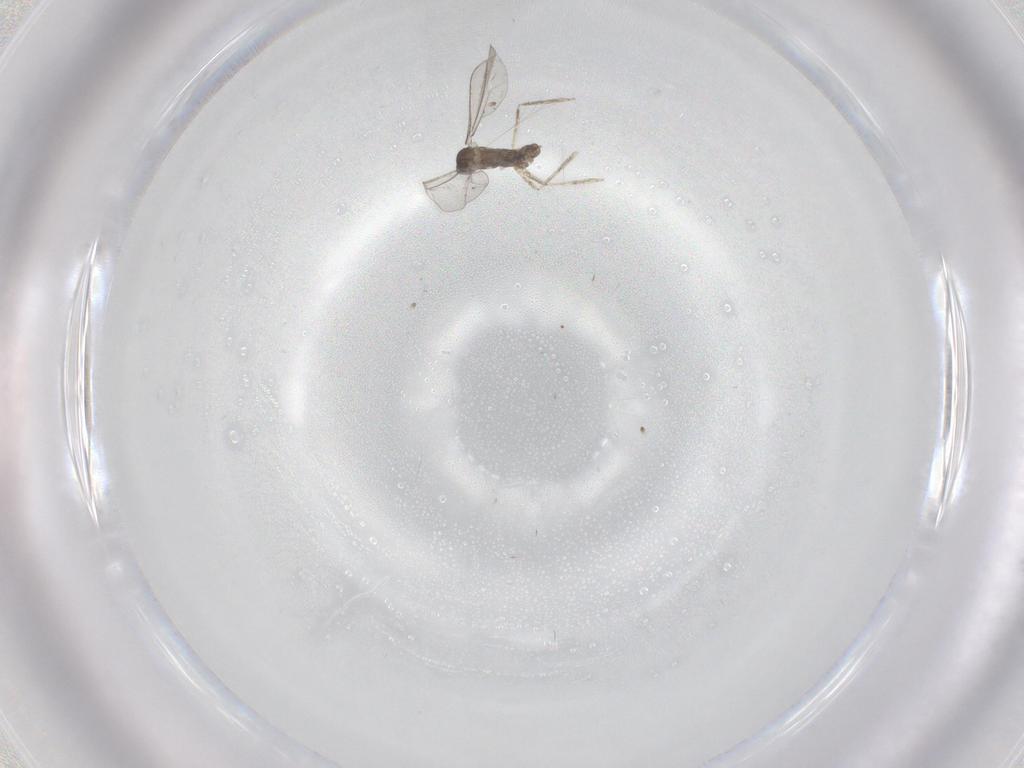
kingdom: Animalia
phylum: Arthropoda
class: Insecta
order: Diptera
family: Cecidomyiidae
